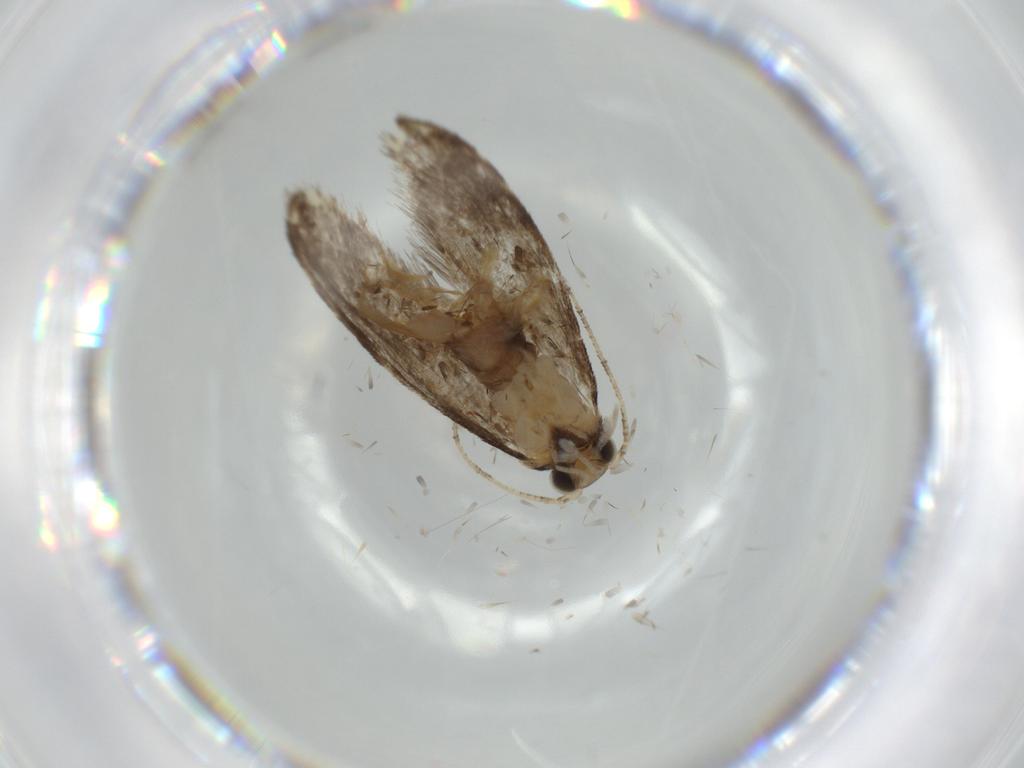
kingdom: Animalia
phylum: Arthropoda
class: Insecta
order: Lepidoptera
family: Tineidae
